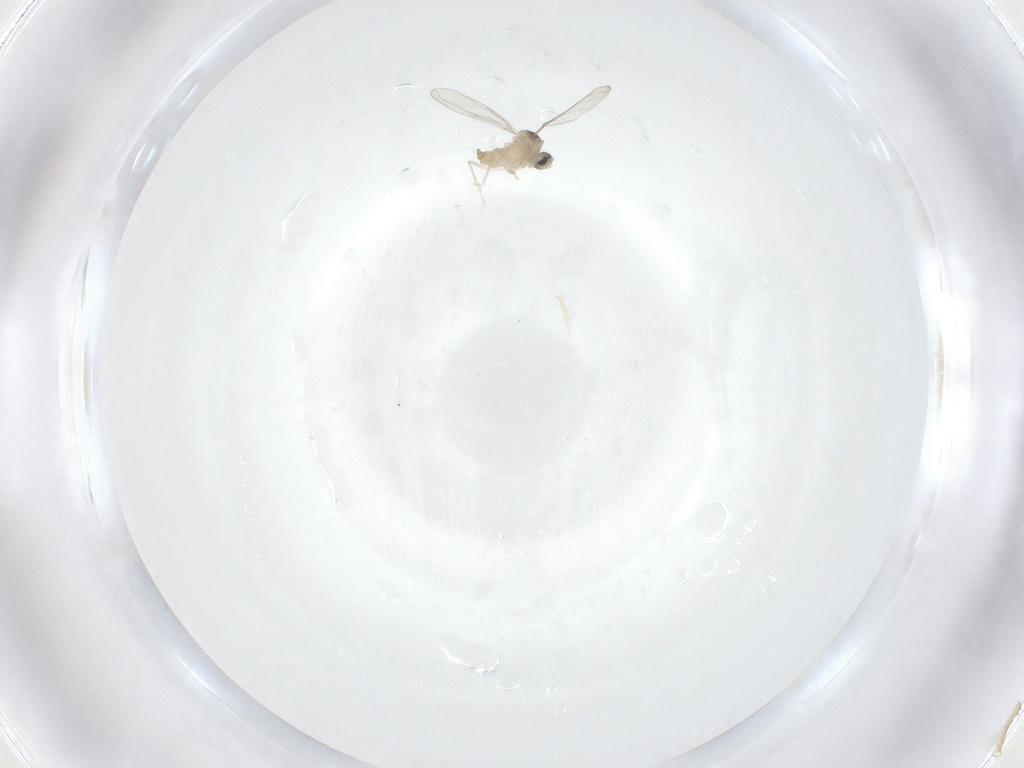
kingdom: Animalia
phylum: Arthropoda
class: Insecta
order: Diptera
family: Cecidomyiidae
